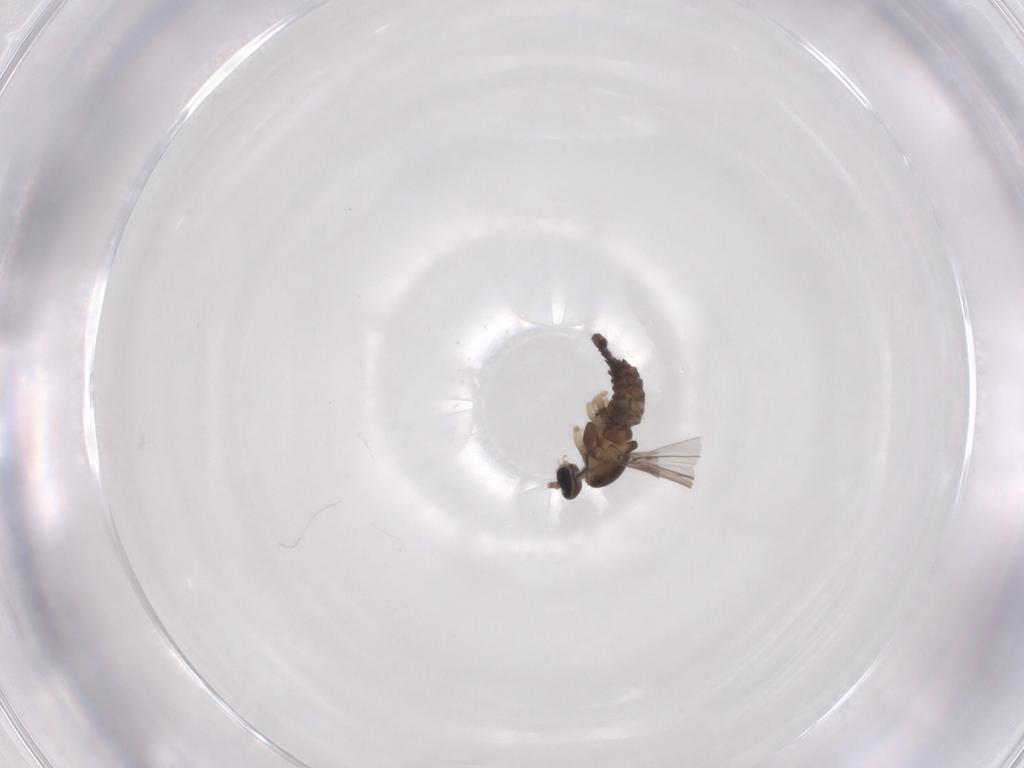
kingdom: Animalia
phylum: Arthropoda
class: Insecta
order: Diptera
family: Cecidomyiidae
